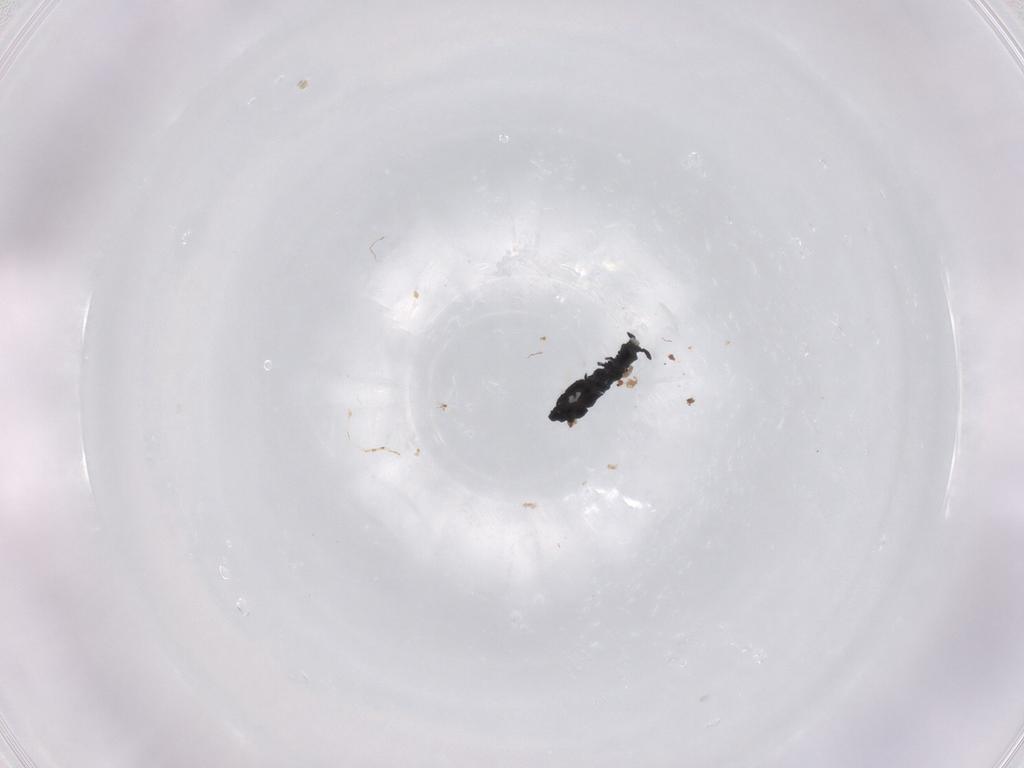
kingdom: Animalia
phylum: Arthropoda
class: Collembola
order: Poduromorpha
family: Hypogastruridae
